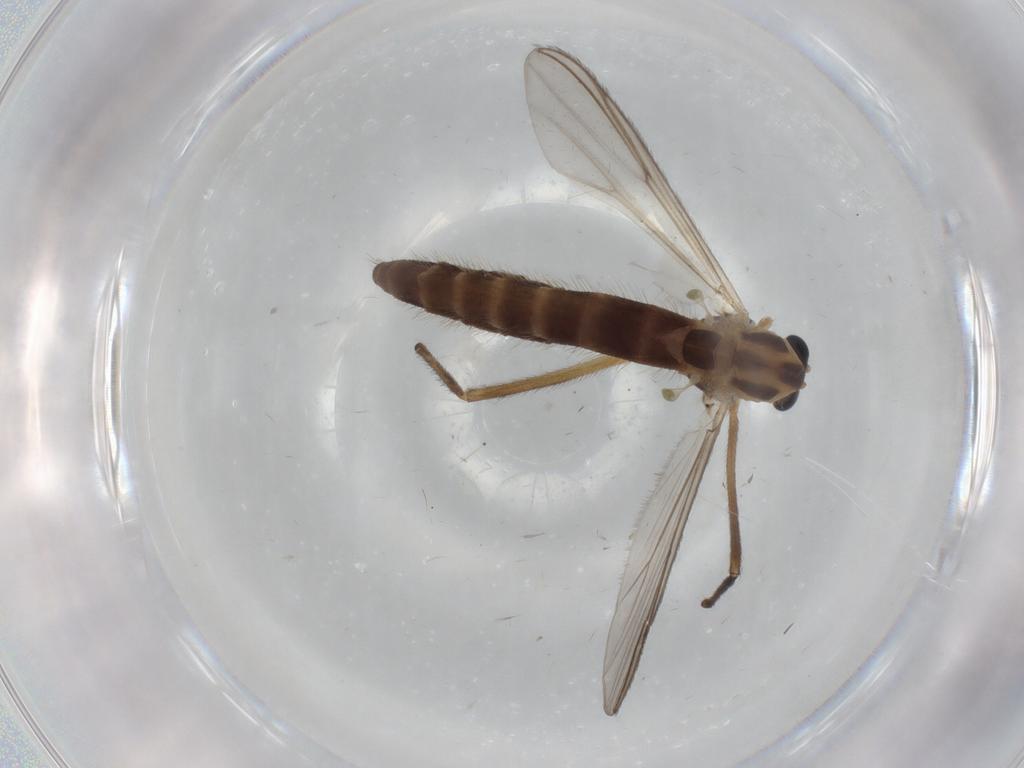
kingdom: Animalia
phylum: Arthropoda
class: Insecta
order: Diptera
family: Chironomidae
